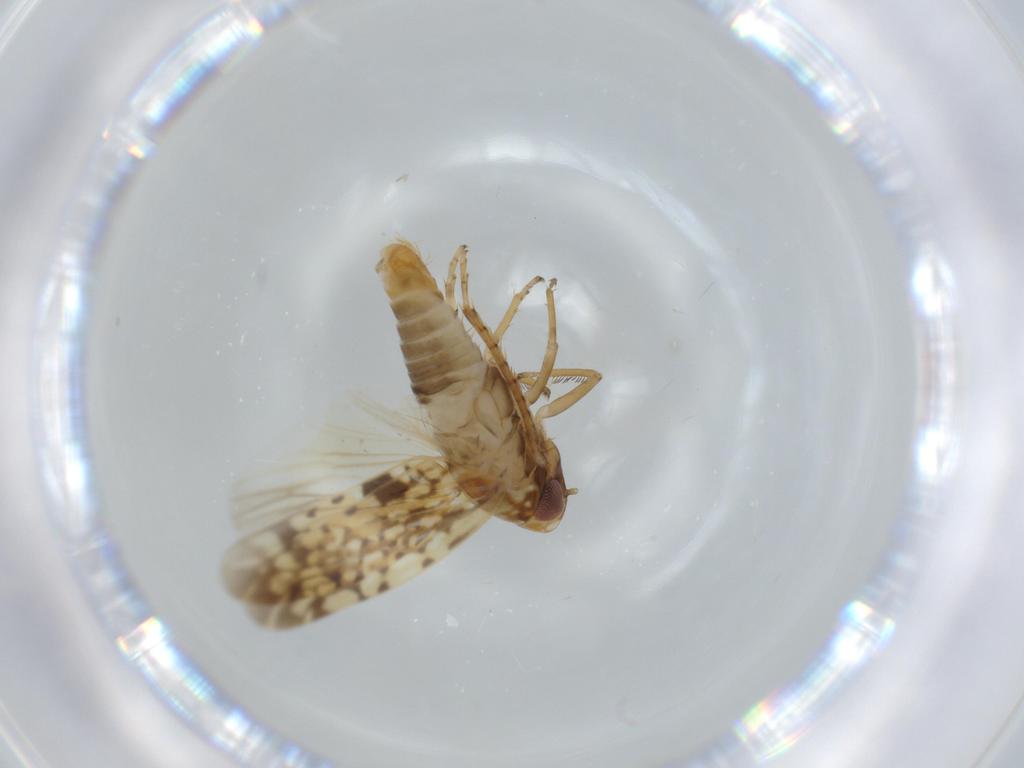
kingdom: Animalia
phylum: Arthropoda
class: Insecta
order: Hemiptera
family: Cicadellidae
